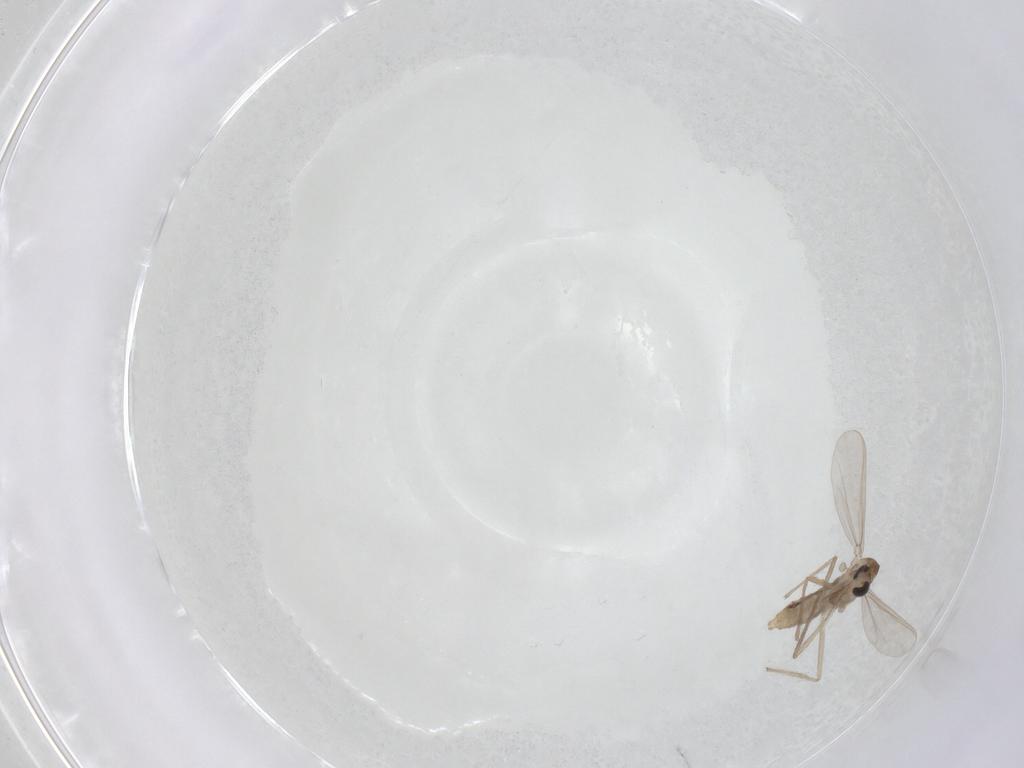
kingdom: Animalia
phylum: Arthropoda
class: Insecta
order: Diptera
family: Chironomidae
